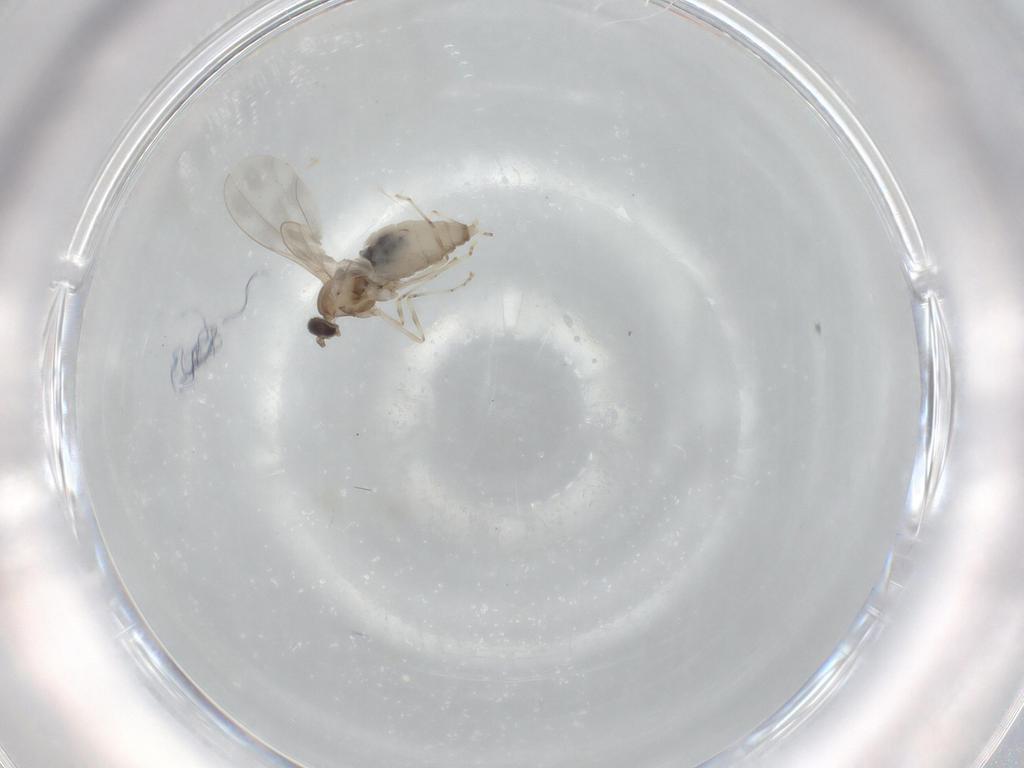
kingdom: Animalia
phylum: Arthropoda
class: Insecta
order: Diptera
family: Cecidomyiidae
